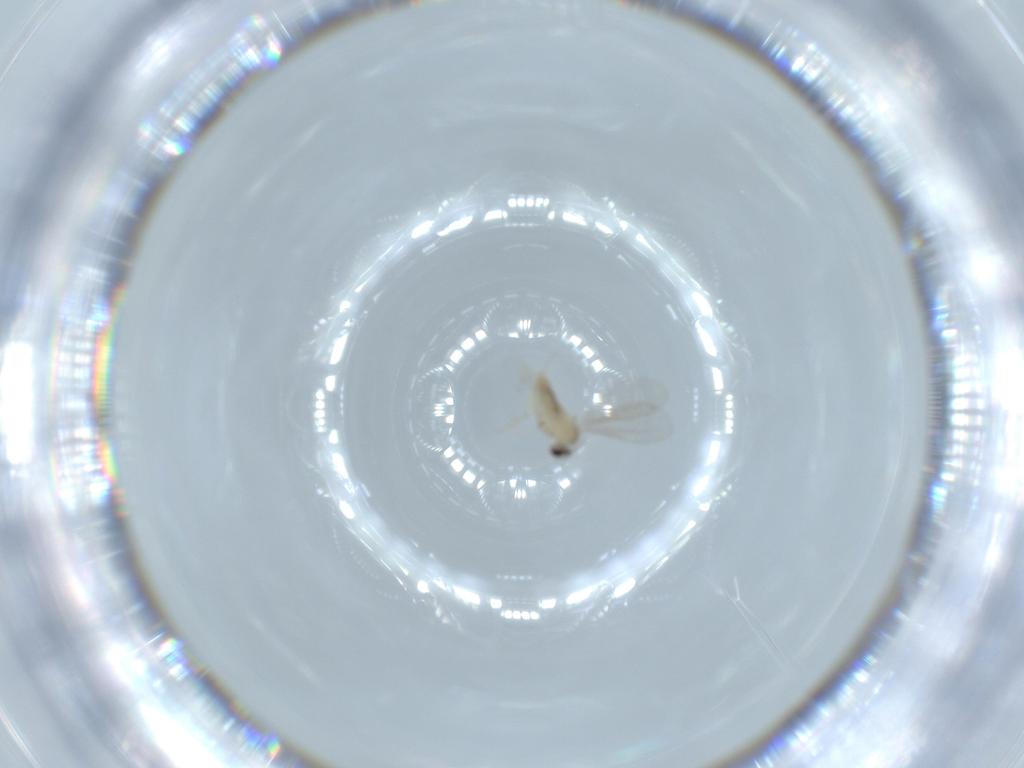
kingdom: Animalia
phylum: Arthropoda
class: Insecta
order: Diptera
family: Cecidomyiidae
